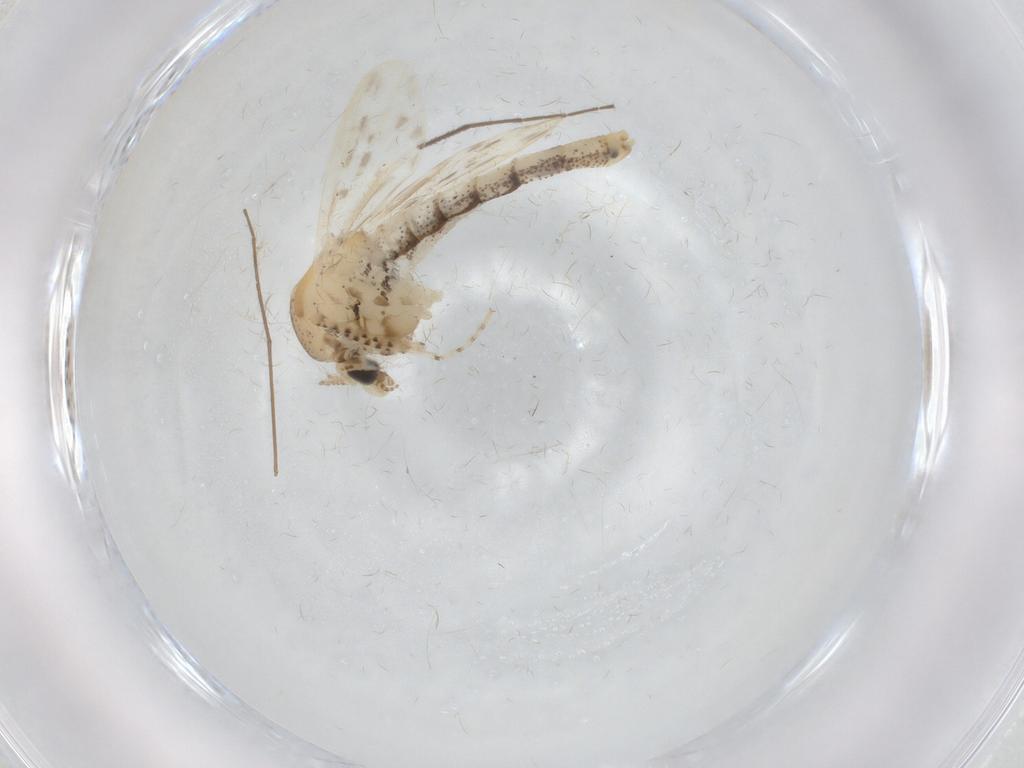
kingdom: Animalia
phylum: Arthropoda
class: Insecta
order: Diptera
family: Chaoboridae
